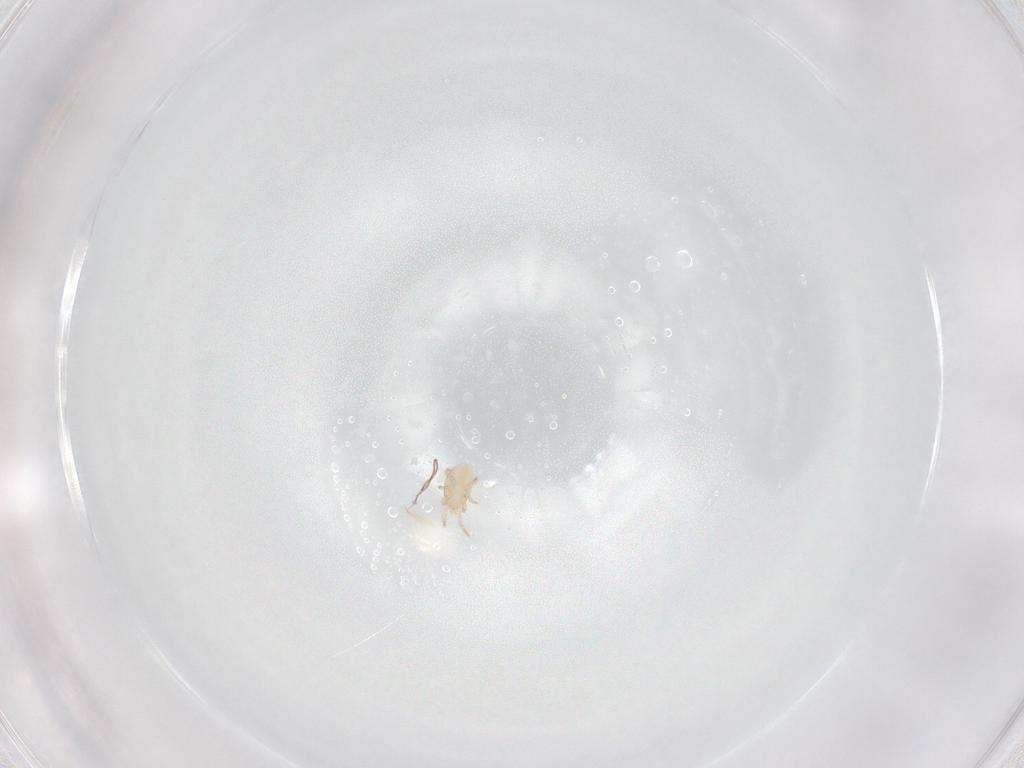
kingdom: Animalia
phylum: Arthropoda
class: Arachnida
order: Mesostigmata
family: Laelapidae
